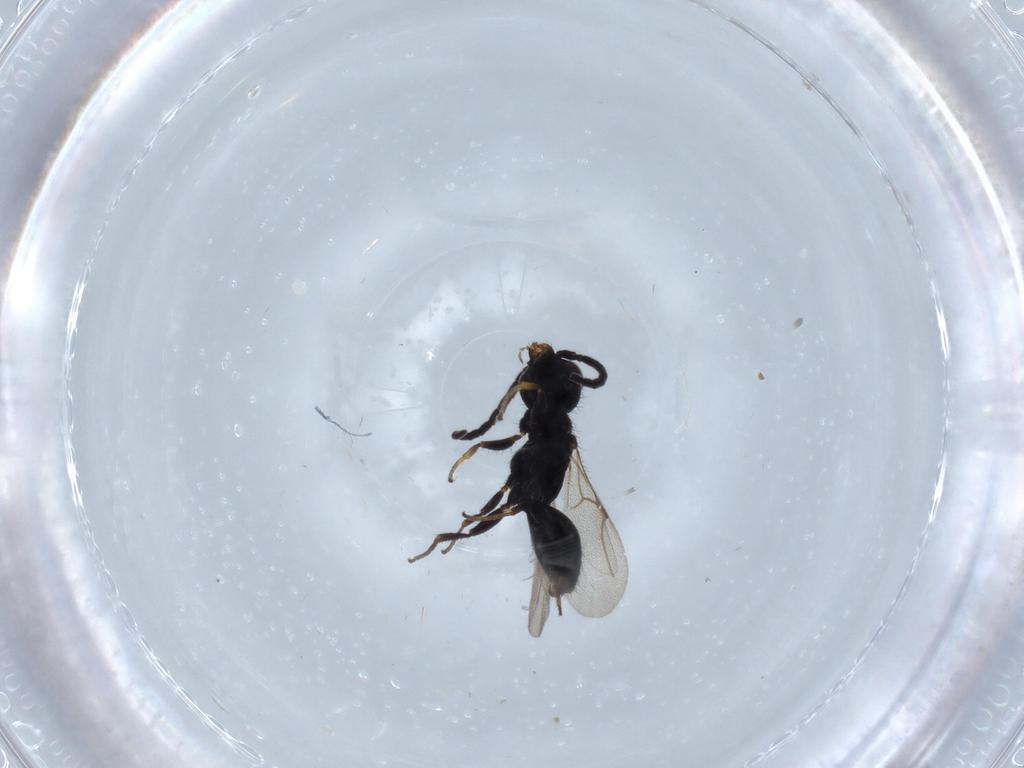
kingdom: Animalia
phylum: Arthropoda
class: Insecta
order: Hymenoptera
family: Bethylidae
